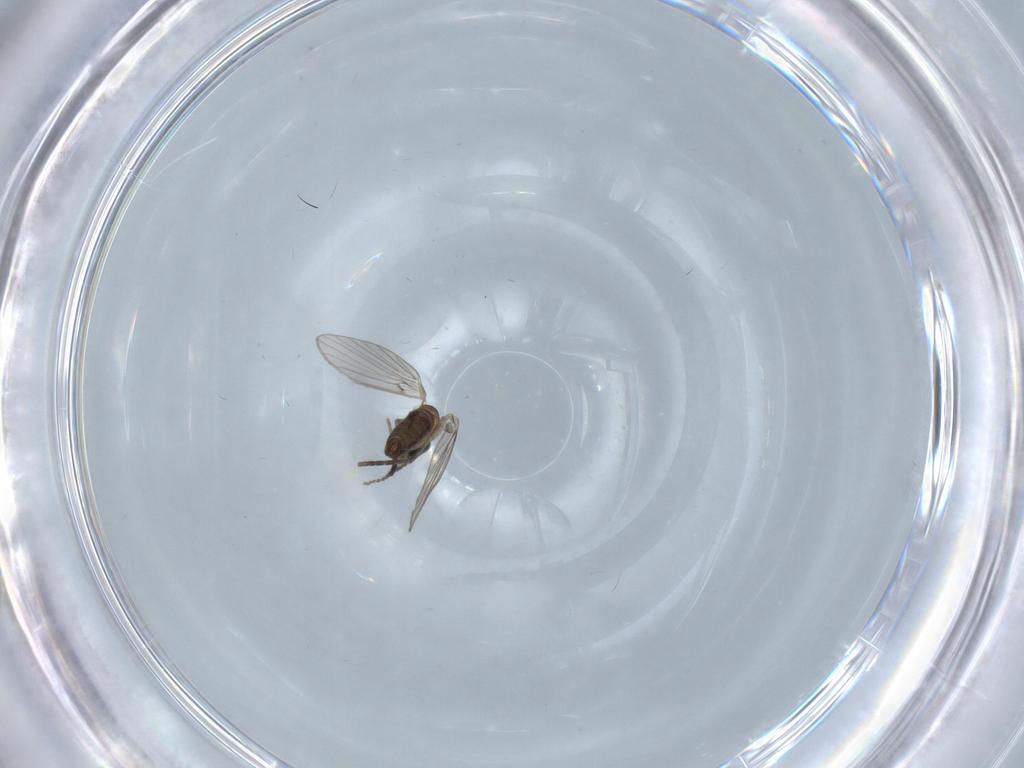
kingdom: Animalia
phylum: Arthropoda
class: Insecta
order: Diptera
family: Psychodidae
